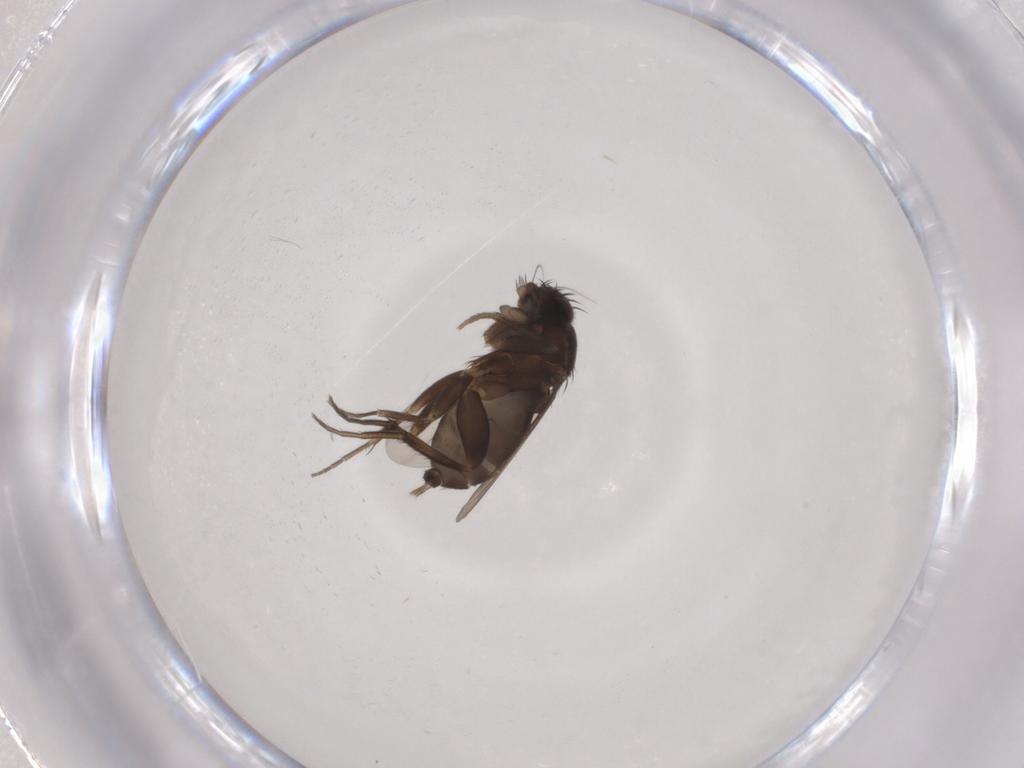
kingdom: Animalia
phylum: Arthropoda
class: Insecta
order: Diptera
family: Phoridae
